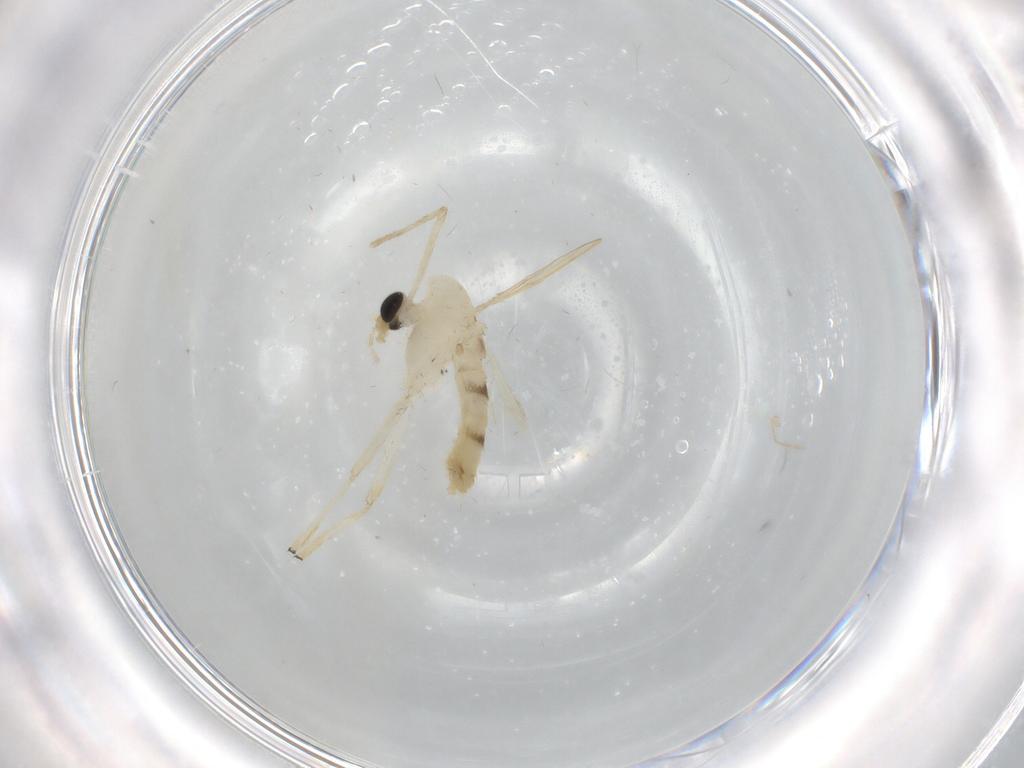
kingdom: Animalia
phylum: Arthropoda
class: Insecta
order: Diptera
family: Chironomidae
